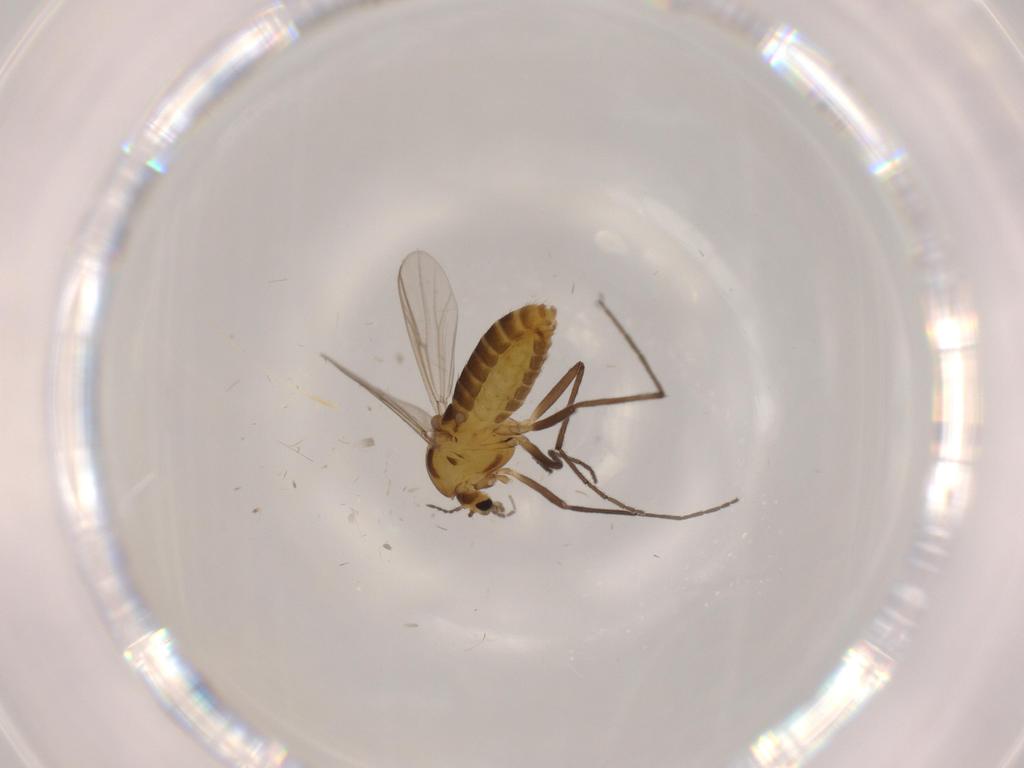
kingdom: Animalia
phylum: Arthropoda
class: Insecta
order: Diptera
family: Chironomidae
